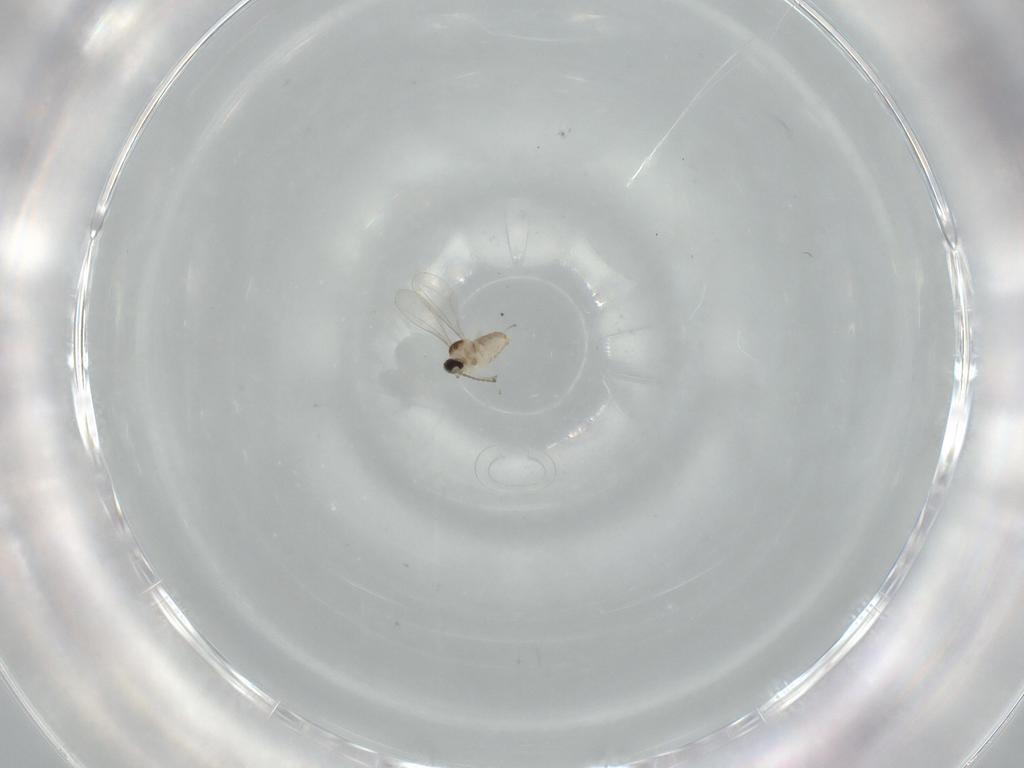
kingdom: Animalia
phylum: Arthropoda
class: Insecta
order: Diptera
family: Cecidomyiidae
